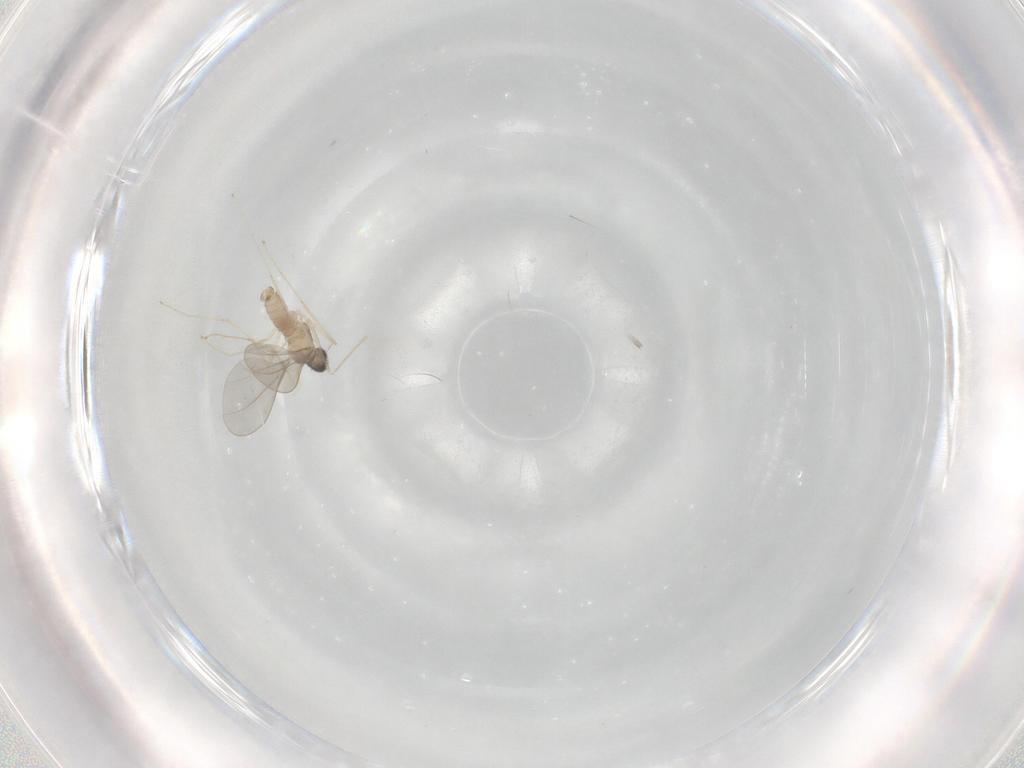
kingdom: Animalia
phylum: Arthropoda
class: Insecta
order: Diptera
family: Cecidomyiidae
